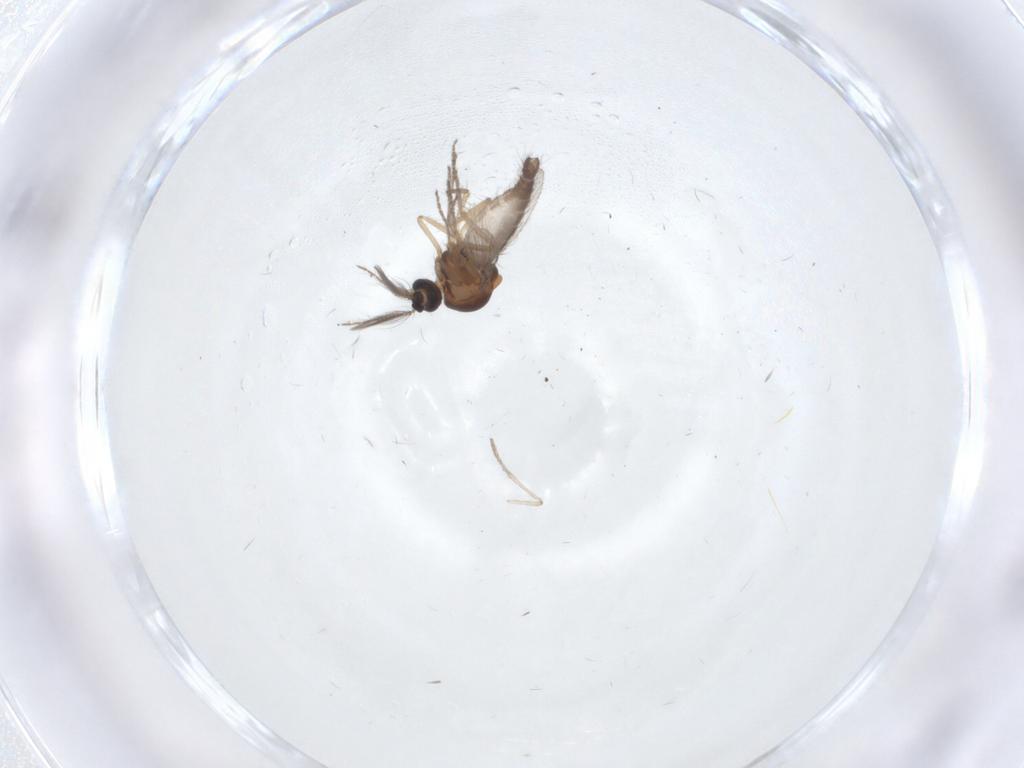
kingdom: Animalia
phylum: Arthropoda
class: Insecta
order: Diptera
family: Psychodidae
